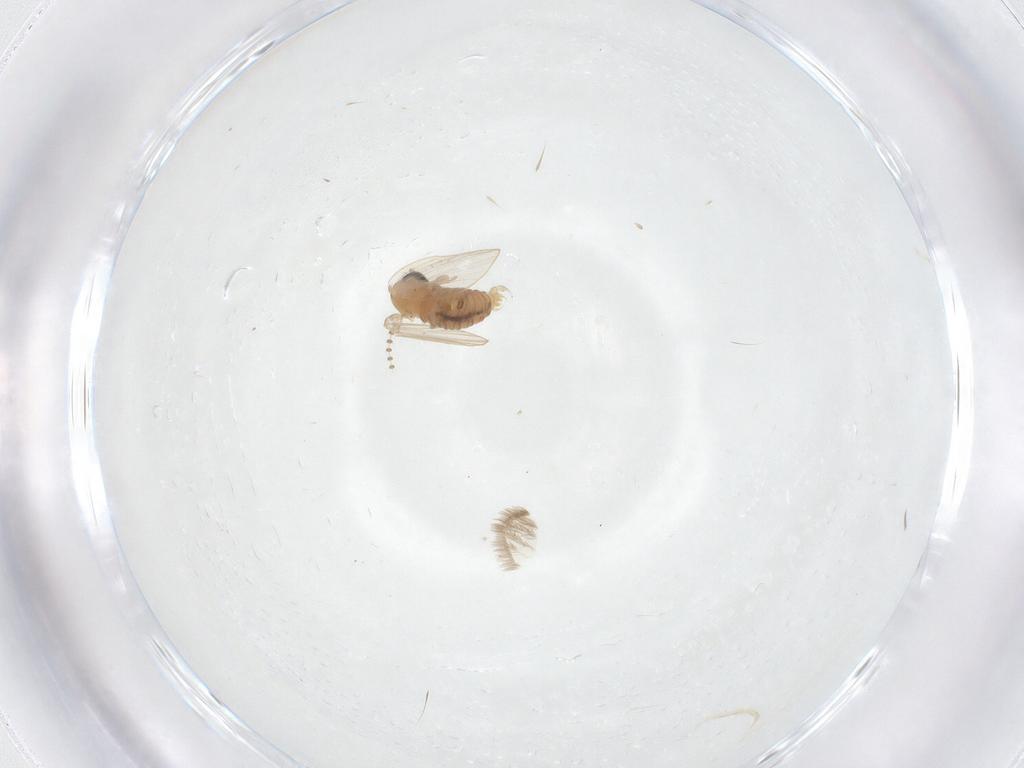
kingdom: Animalia
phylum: Arthropoda
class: Insecta
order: Diptera
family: Psychodidae
